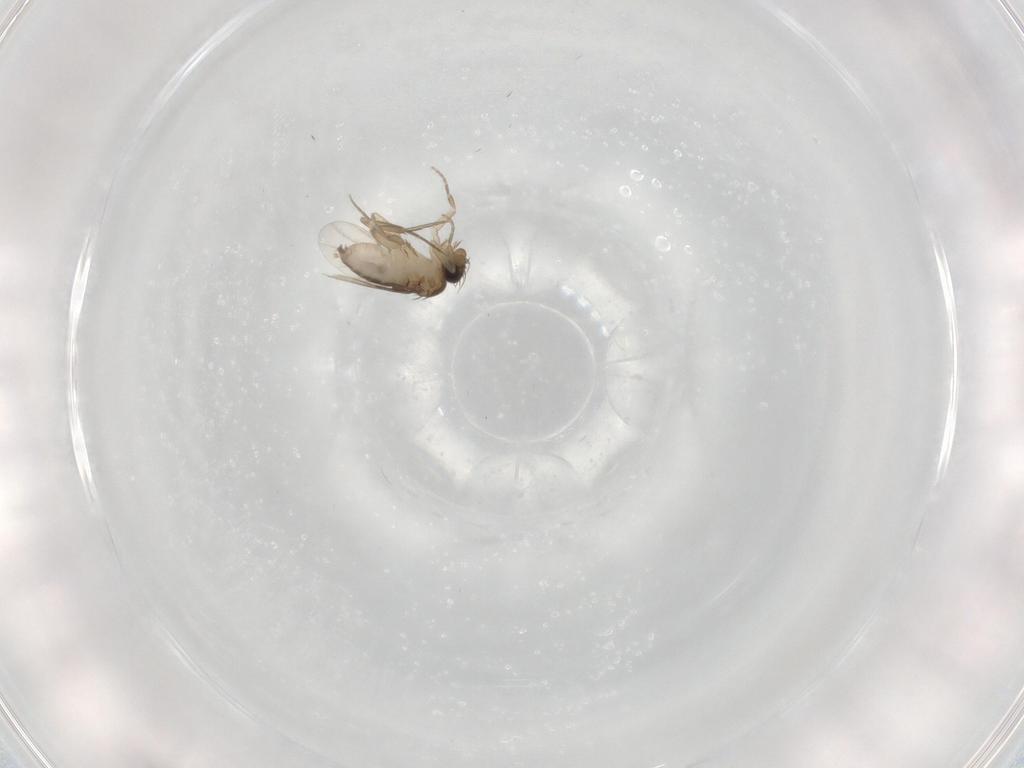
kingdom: Animalia
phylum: Arthropoda
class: Insecta
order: Diptera
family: Phoridae
